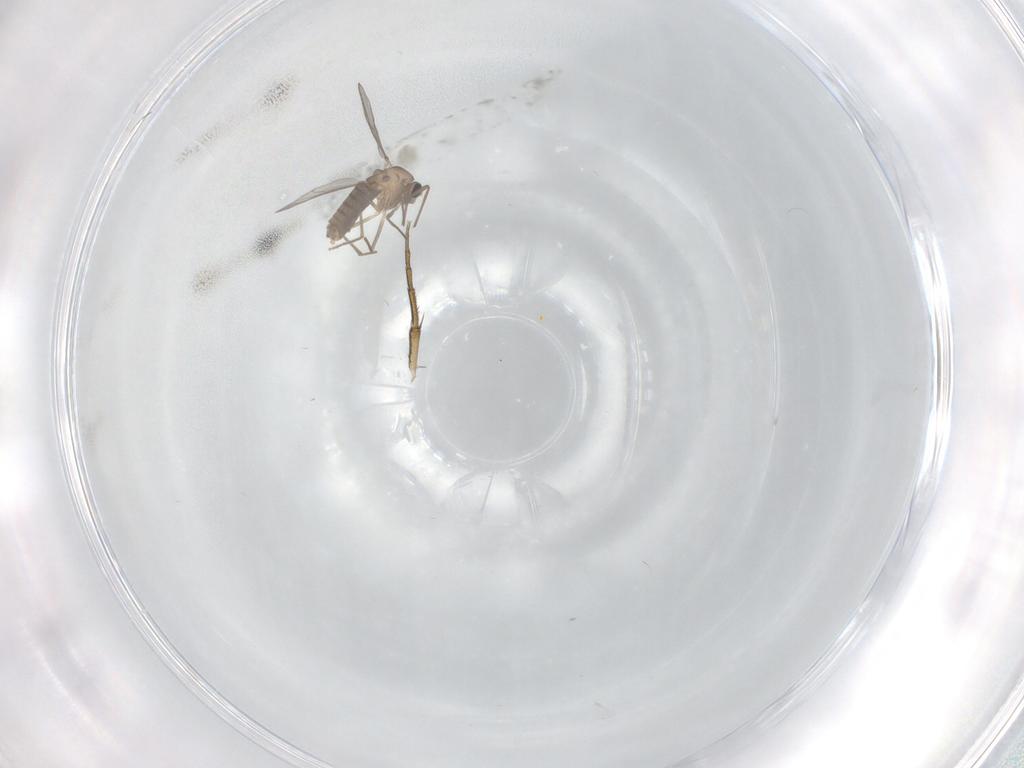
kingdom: Animalia
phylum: Arthropoda
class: Insecta
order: Diptera
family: Chironomidae
